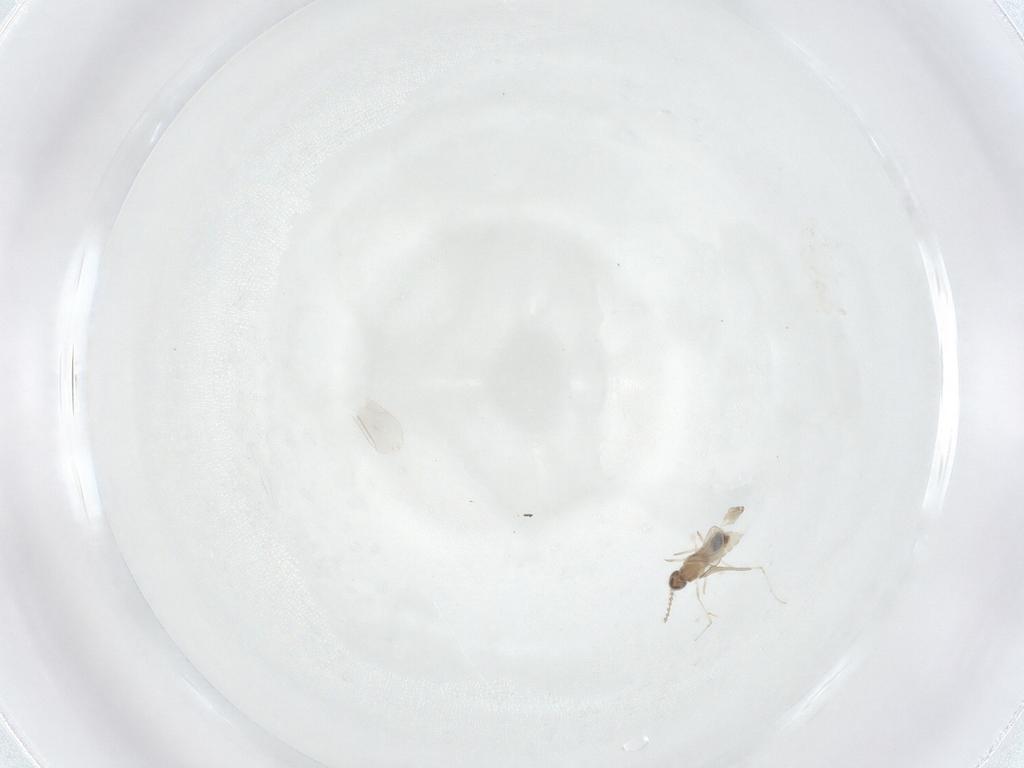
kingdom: Animalia
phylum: Arthropoda
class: Insecta
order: Diptera
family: Cecidomyiidae
